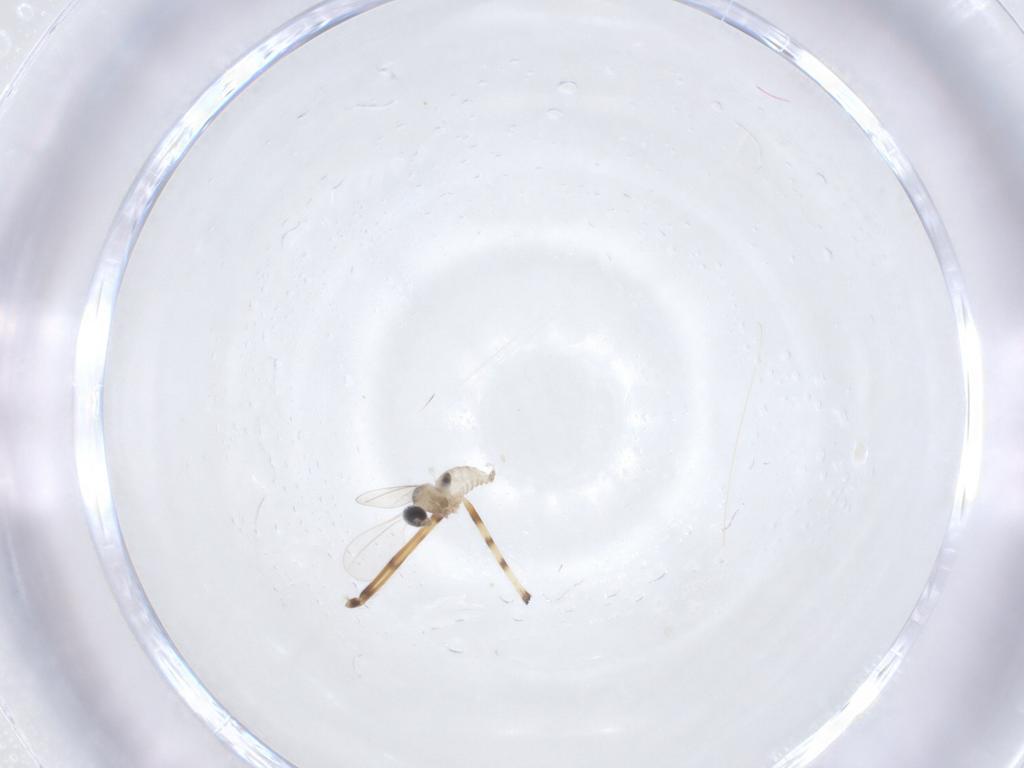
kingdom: Animalia
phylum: Arthropoda
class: Insecta
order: Diptera
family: Chironomidae
